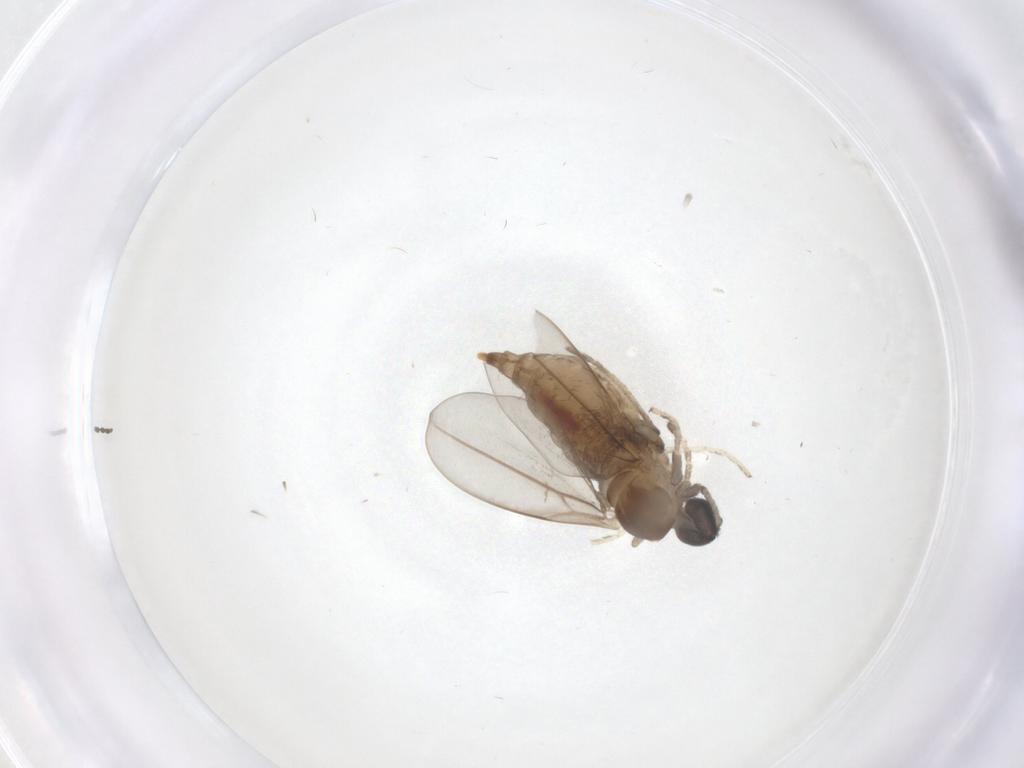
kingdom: Animalia
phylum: Arthropoda
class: Insecta
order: Diptera
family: Cecidomyiidae
